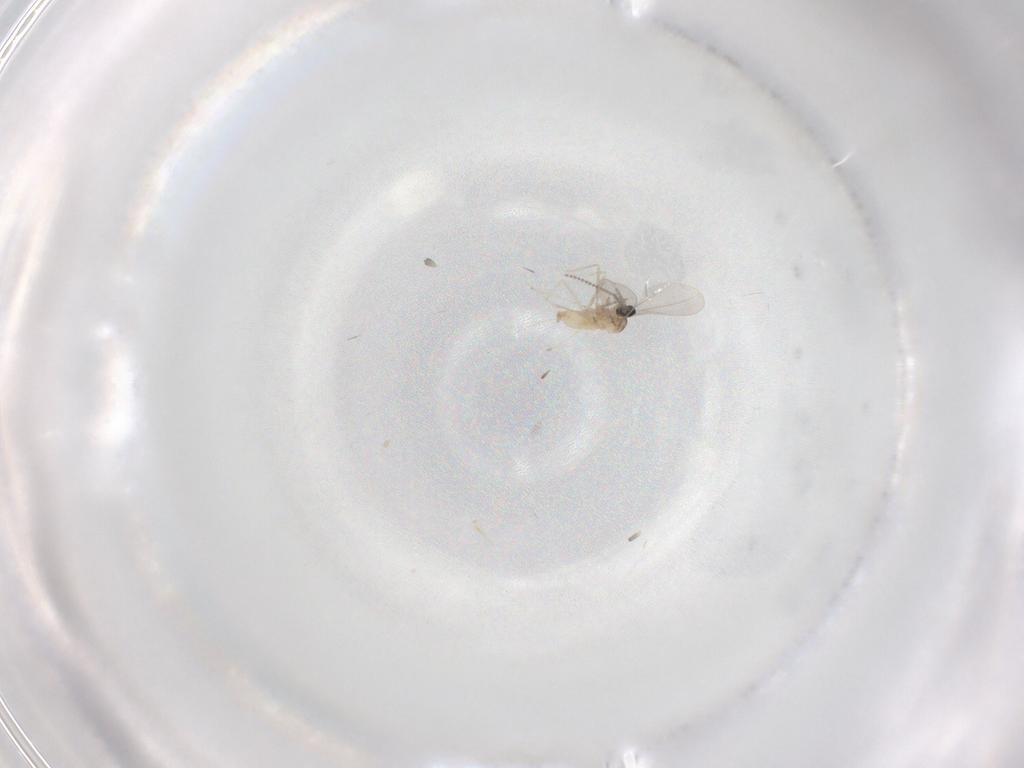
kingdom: Animalia
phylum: Arthropoda
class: Insecta
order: Diptera
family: Cecidomyiidae
